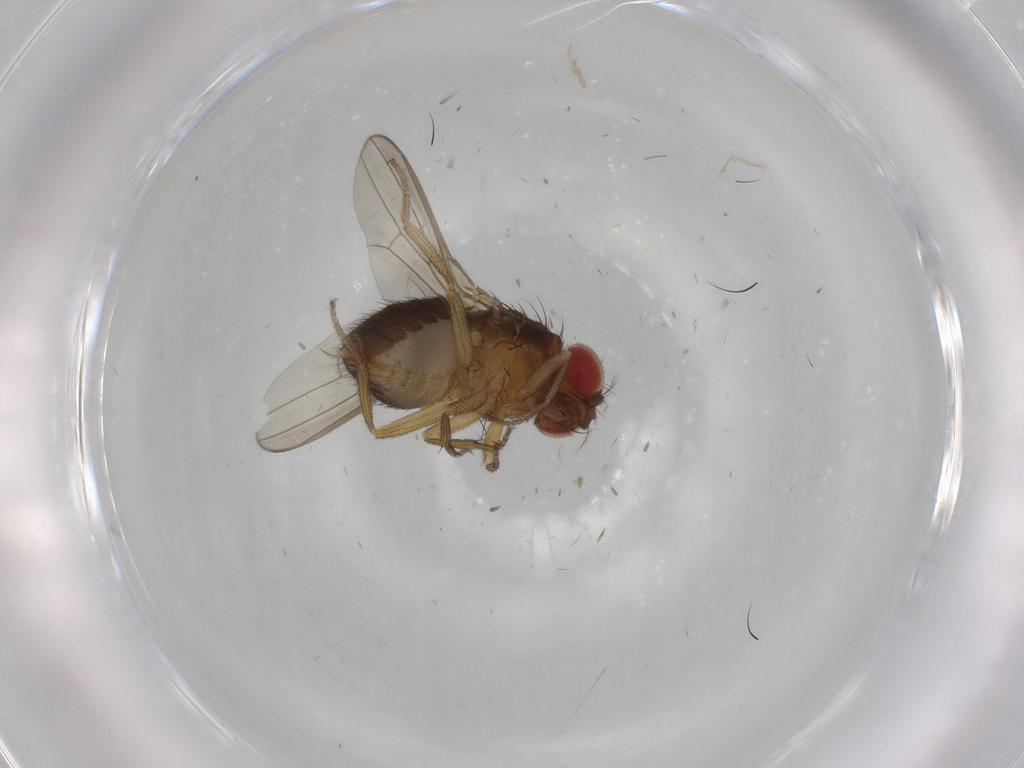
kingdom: Animalia
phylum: Arthropoda
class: Insecta
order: Diptera
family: Drosophilidae
